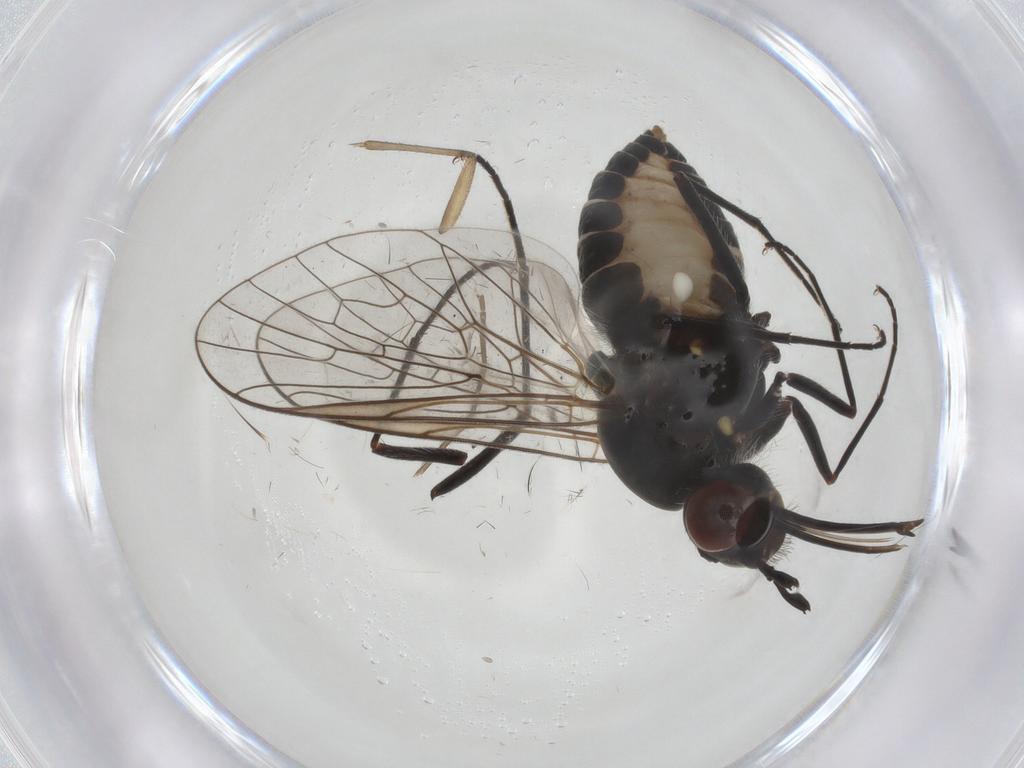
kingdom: Animalia
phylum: Arthropoda
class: Insecta
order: Diptera
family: Bombyliidae
